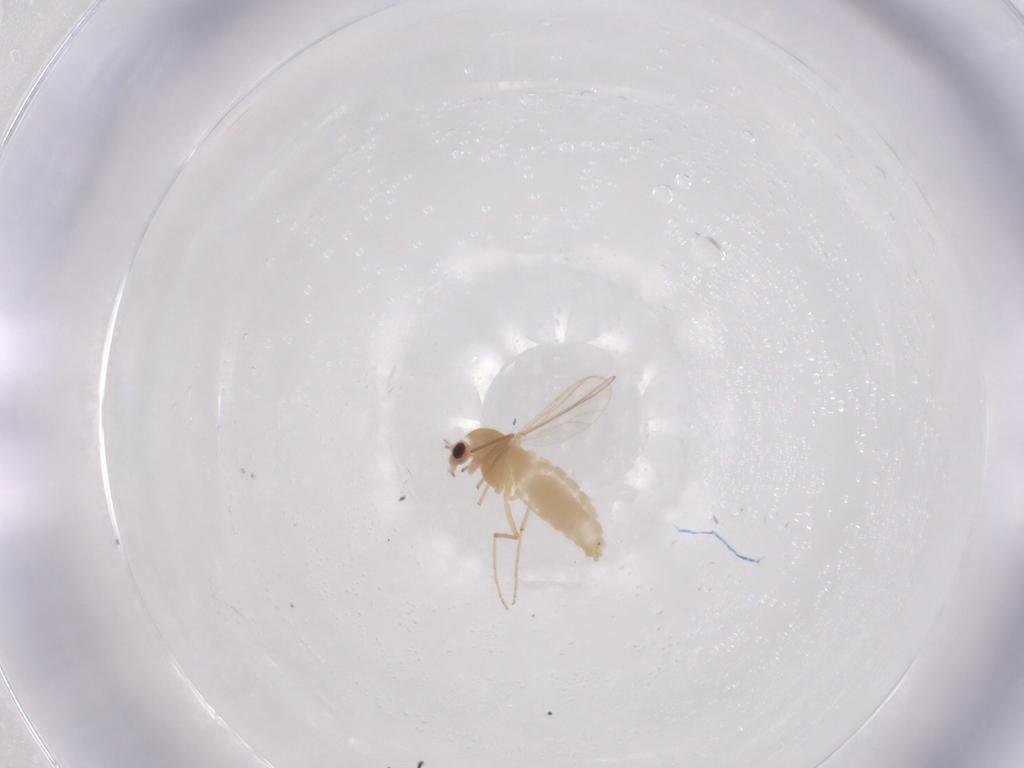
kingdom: Animalia
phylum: Arthropoda
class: Insecta
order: Diptera
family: Chironomidae
